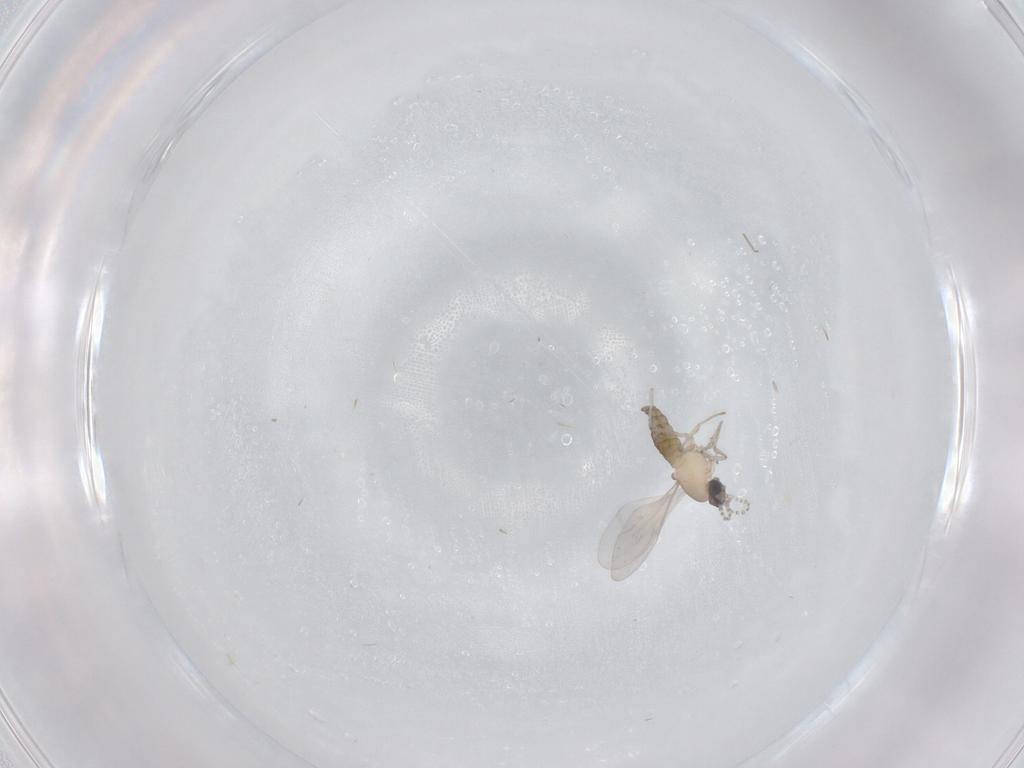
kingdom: Animalia
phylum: Arthropoda
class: Insecta
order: Diptera
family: Cecidomyiidae
